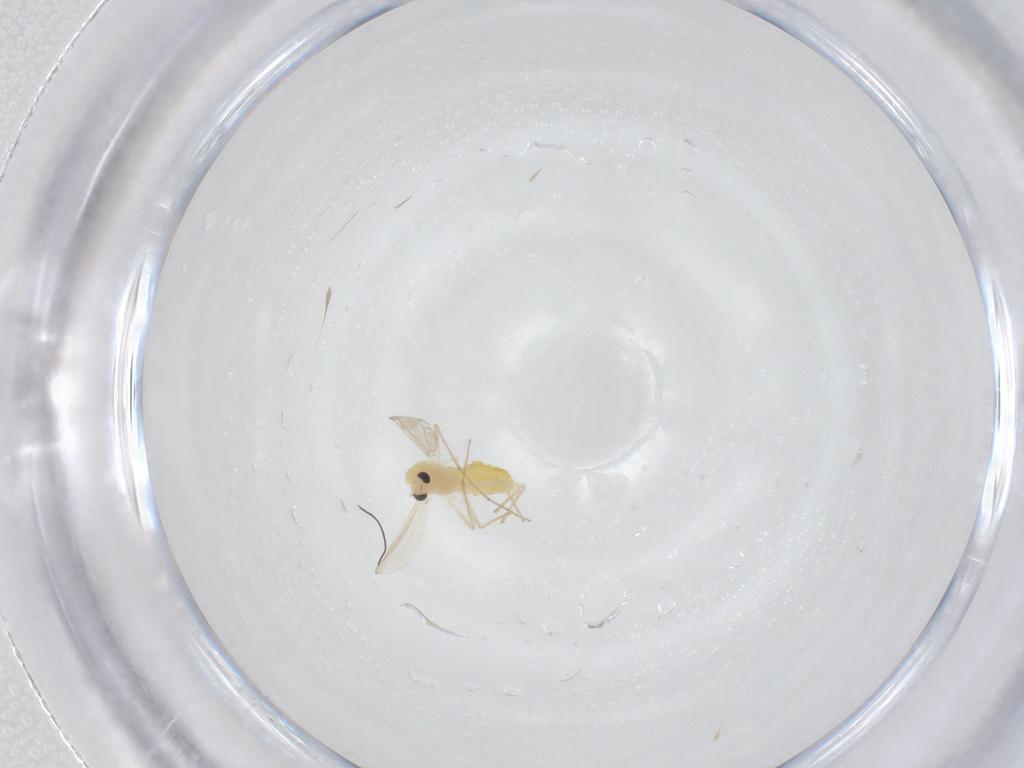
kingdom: Animalia
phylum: Arthropoda
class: Insecta
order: Diptera
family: Chironomidae
